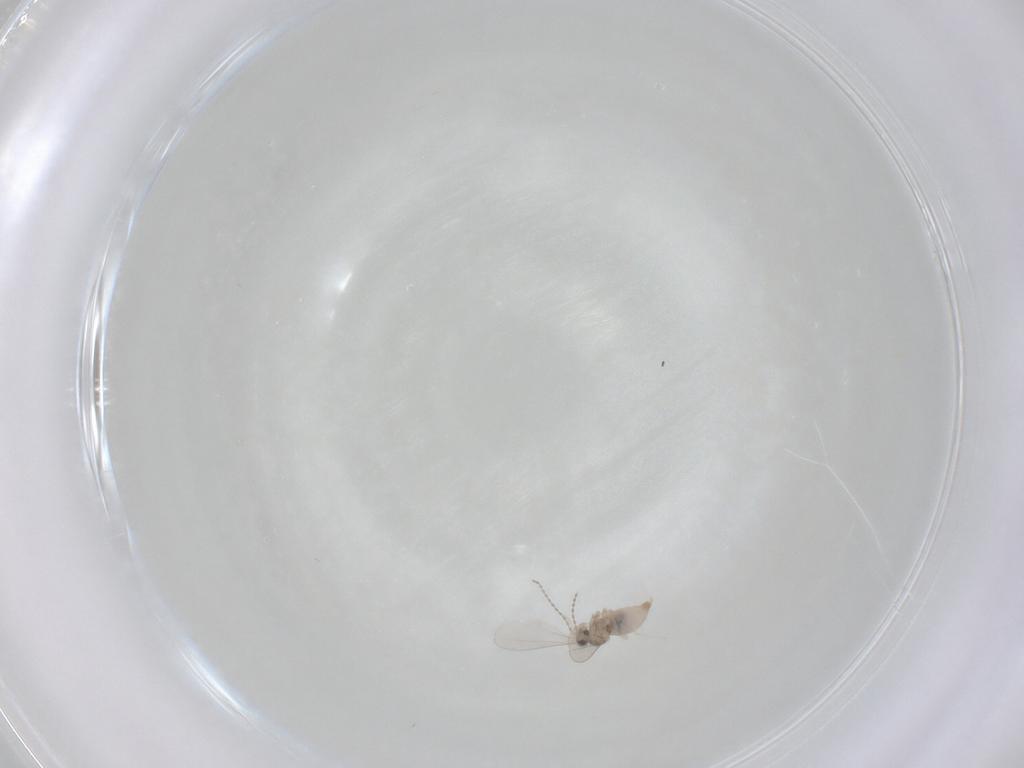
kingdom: Animalia
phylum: Arthropoda
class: Insecta
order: Diptera
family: Cecidomyiidae
